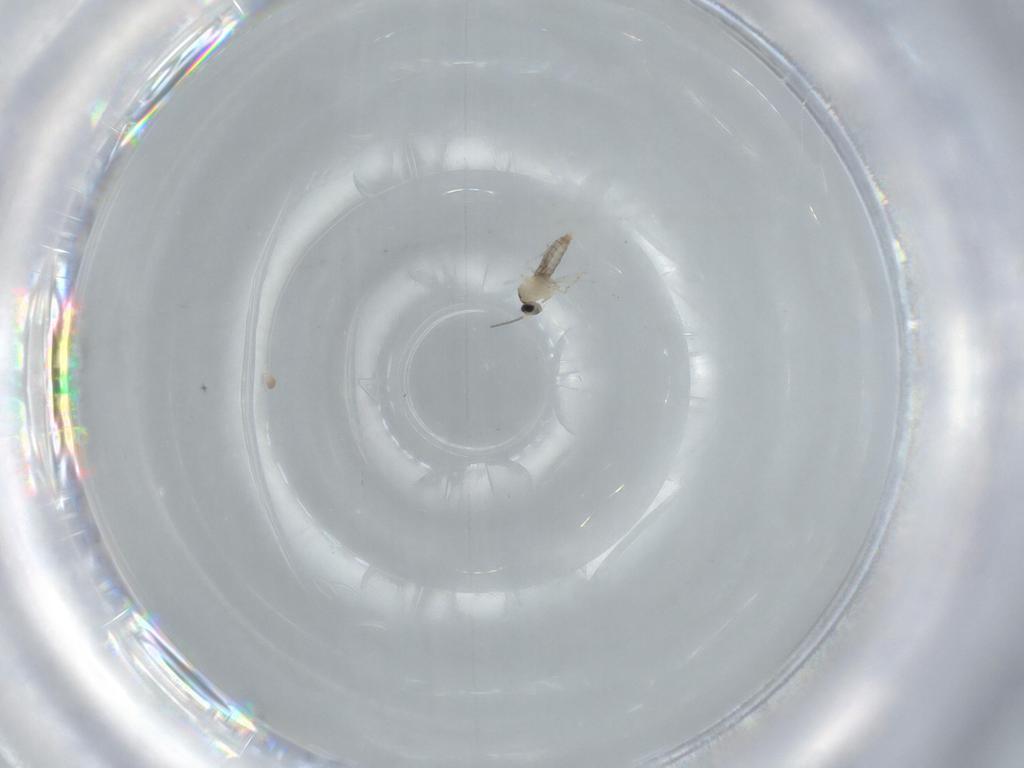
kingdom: Animalia
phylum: Arthropoda
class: Insecta
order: Diptera
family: Cecidomyiidae
